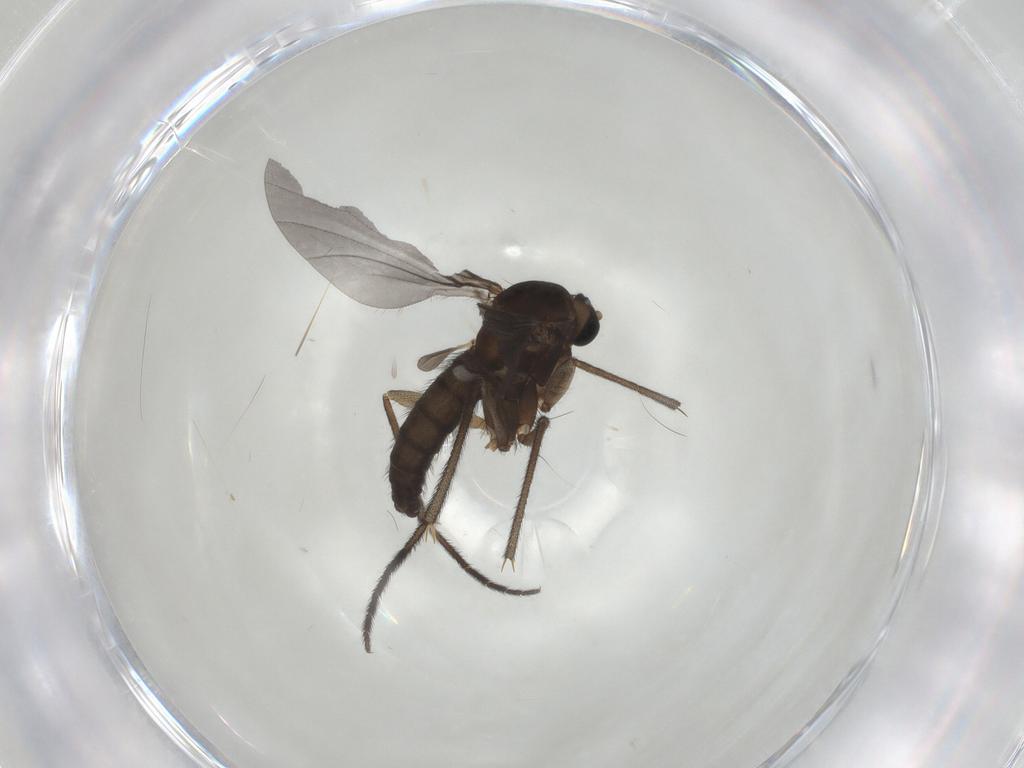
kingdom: Animalia
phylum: Arthropoda
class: Insecta
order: Diptera
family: Sciaridae
